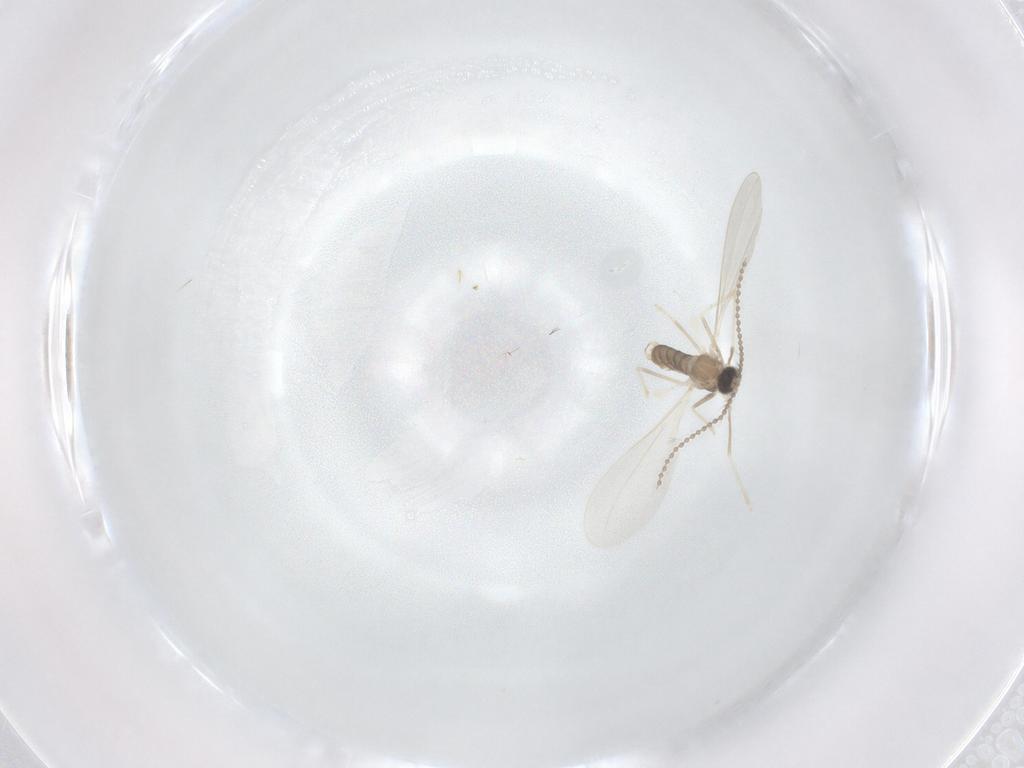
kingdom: Animalia
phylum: Arthropoda
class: Insecta
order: Diptera
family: Cecidomyiidae
